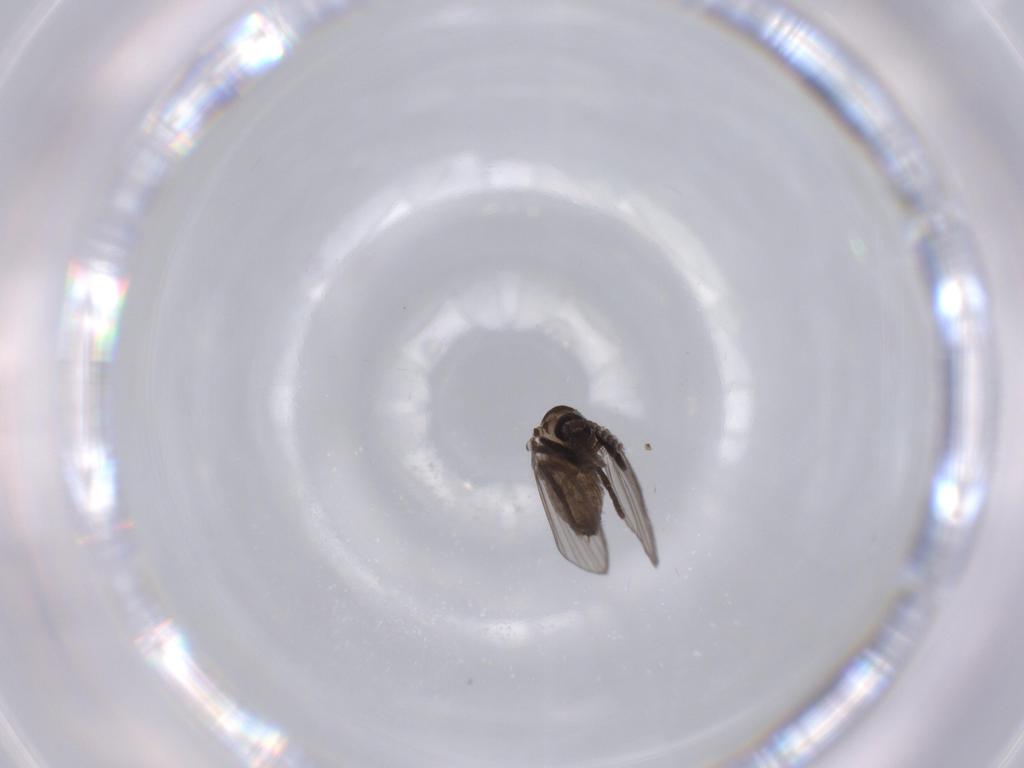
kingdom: Animalia
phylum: Arthropoda
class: Insecta
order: Diptera
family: Psychodidae
